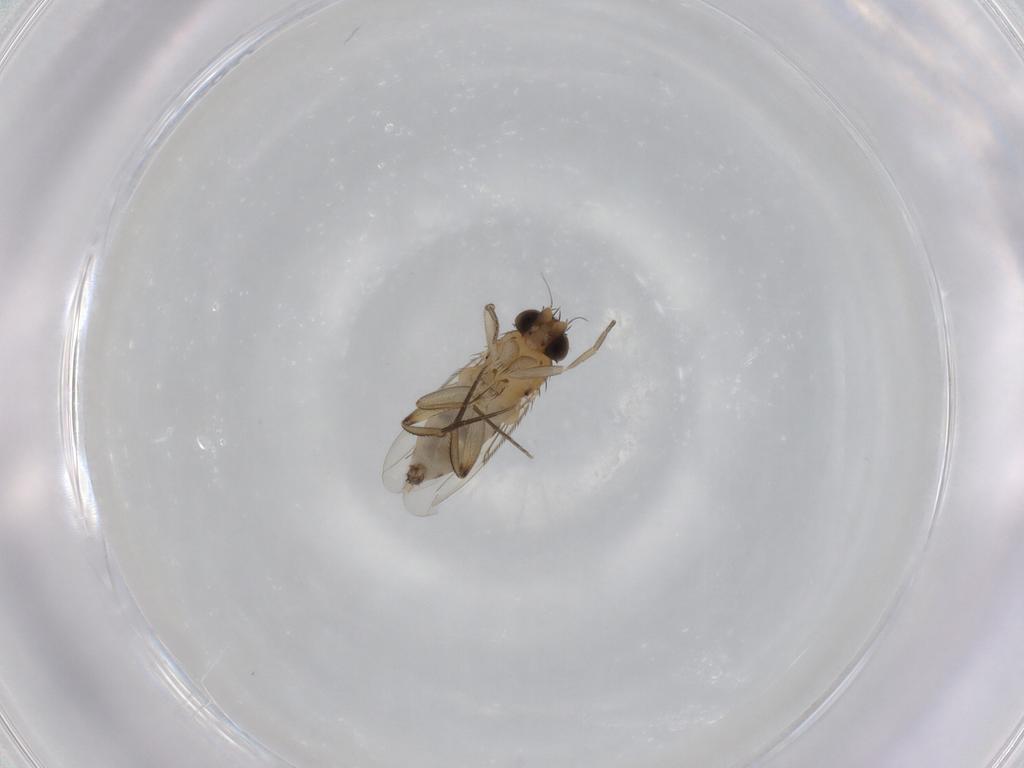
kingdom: Animalia
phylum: Arthropoda
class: Insecta
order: Diptera
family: Phoridae
